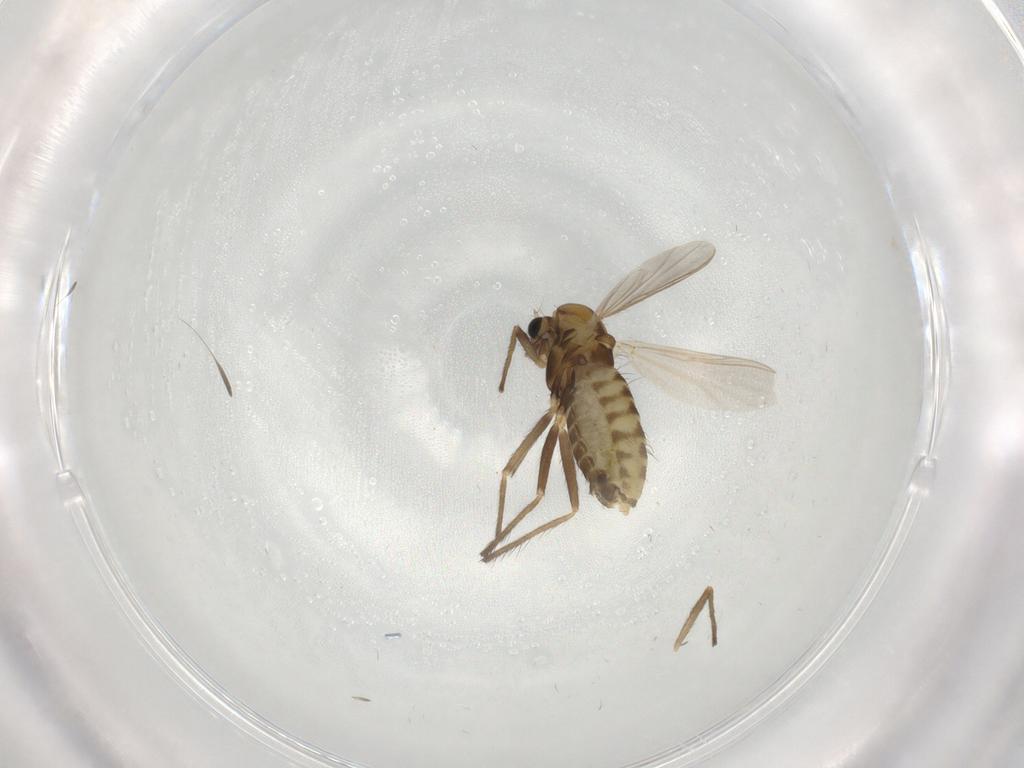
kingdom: Animalia
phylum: Arthropoda
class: Insecta
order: Diptera
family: Chironomidae
